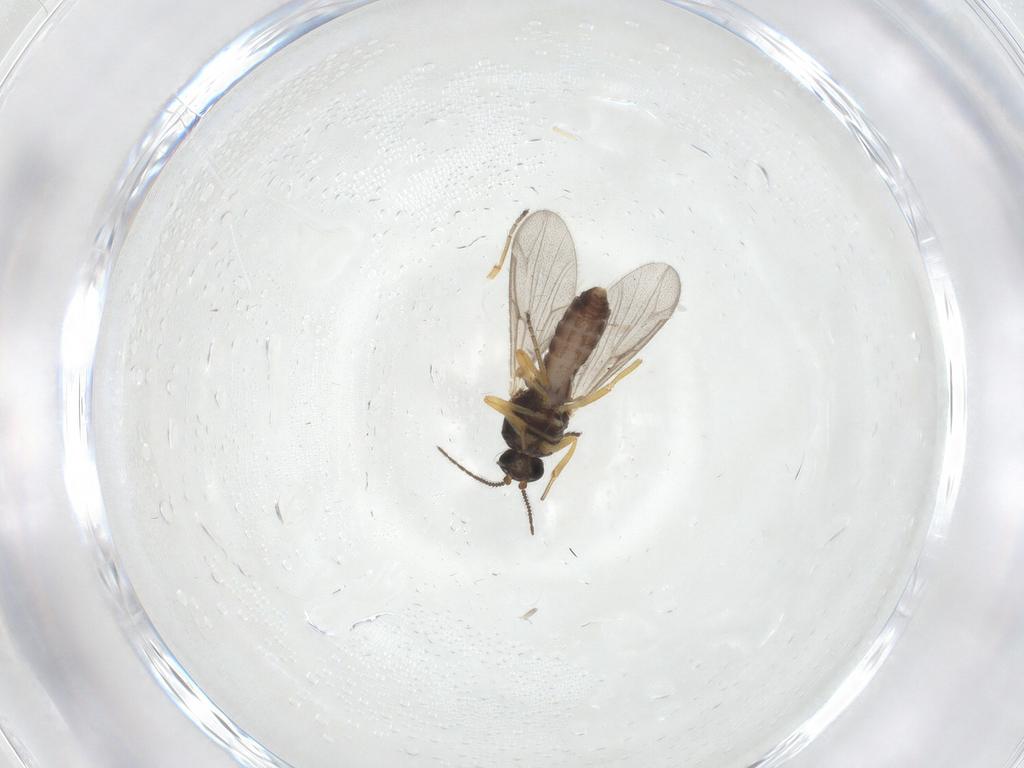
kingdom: Animalia
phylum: Arthropoda
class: Insecta
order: Diptera
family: Ceratopogonidae
